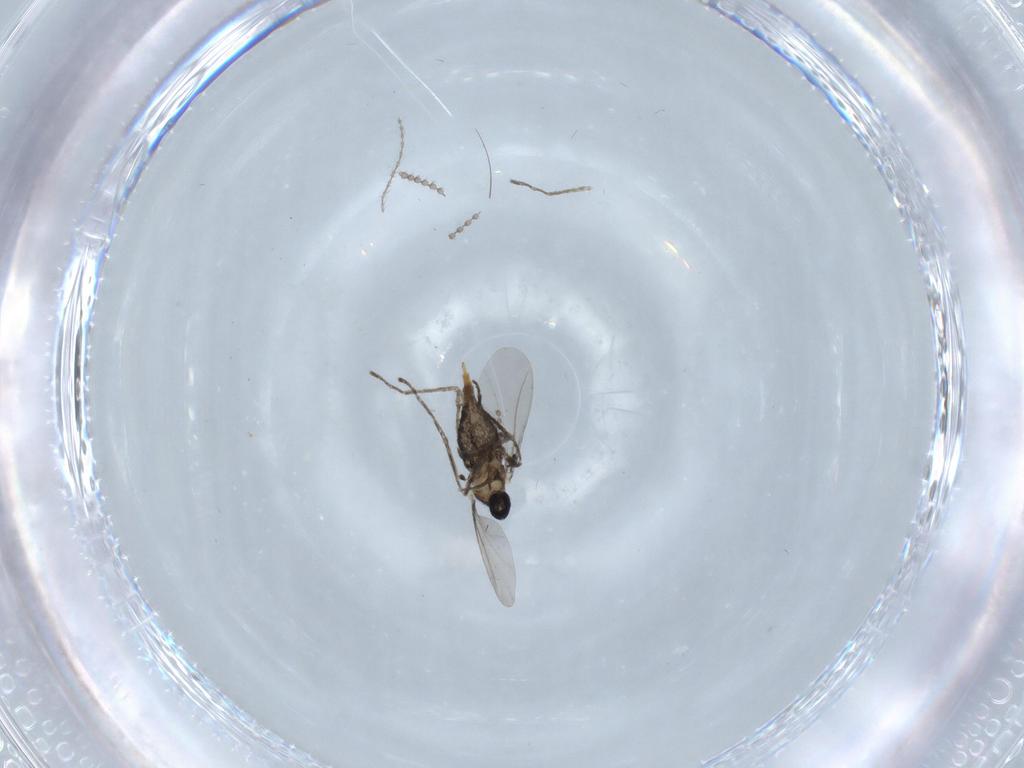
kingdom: Animalia
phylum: Arthropoda
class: Insecta
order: Diptera
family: Cecidomyiidae
